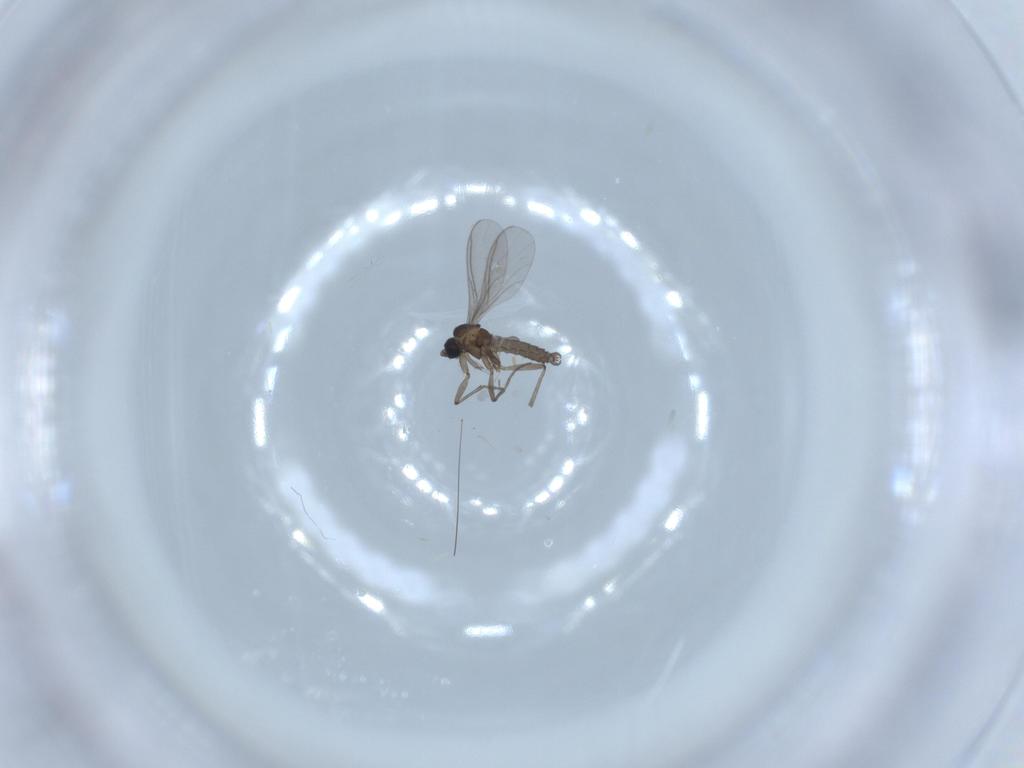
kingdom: Animalia
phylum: Arthropoda
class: Insecta
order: Diptera
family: Sciaridae
